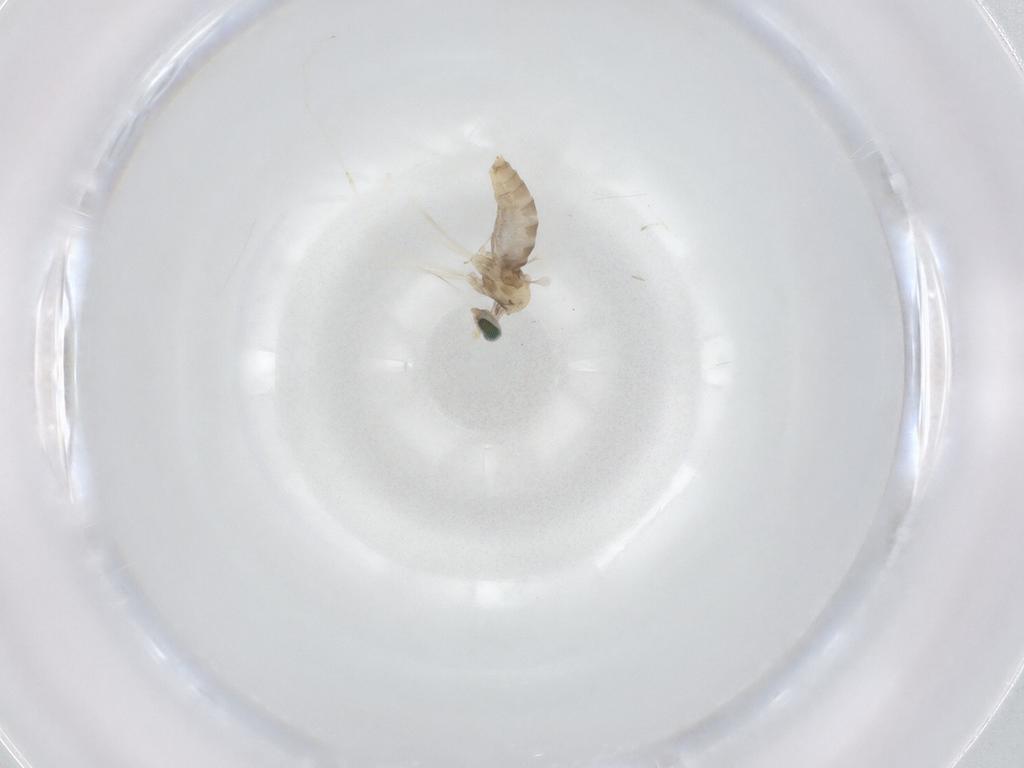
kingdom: Animalia
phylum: Arthropoda
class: Insecta
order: Diptera
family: Cecidomyiidae
